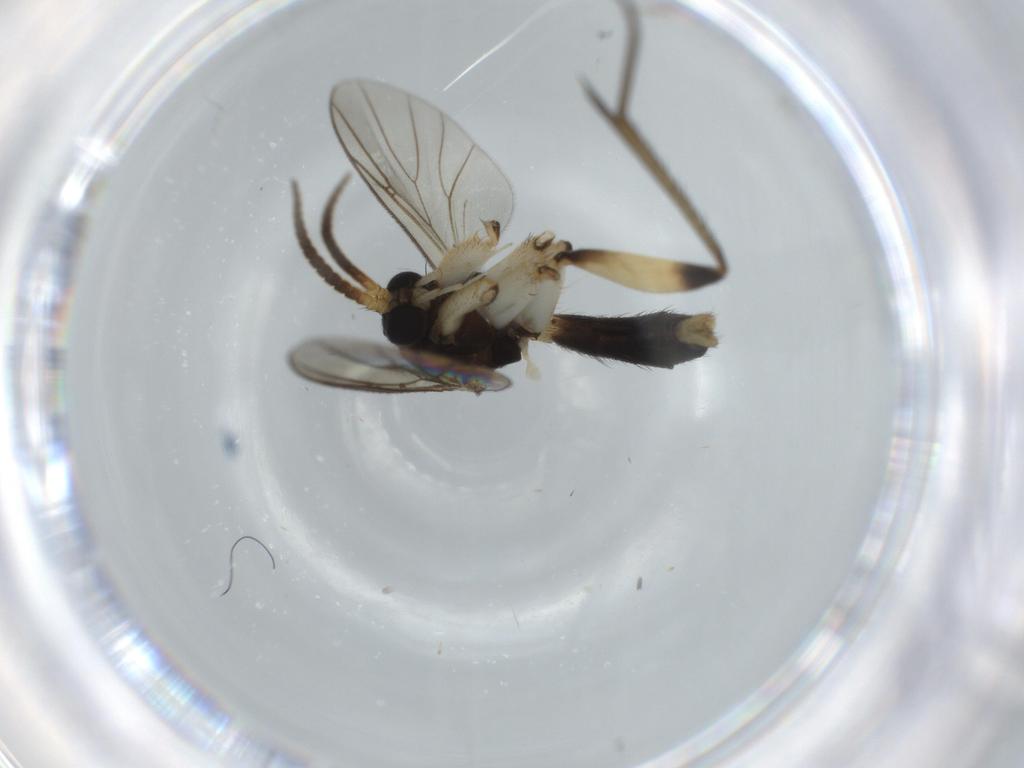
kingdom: Animalia
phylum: Arthropoda
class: Insecta
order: Diptera
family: Mycetophilidae
